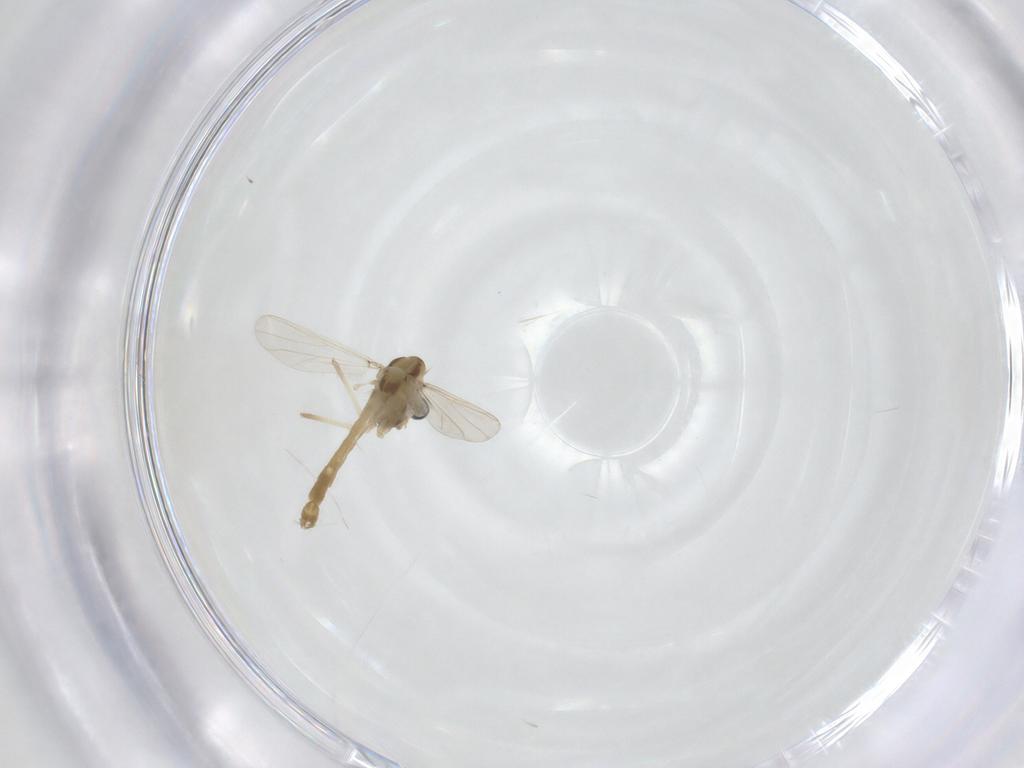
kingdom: Animalia
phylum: Arthropoda
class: Insecta
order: Diptera
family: Chironomidae
